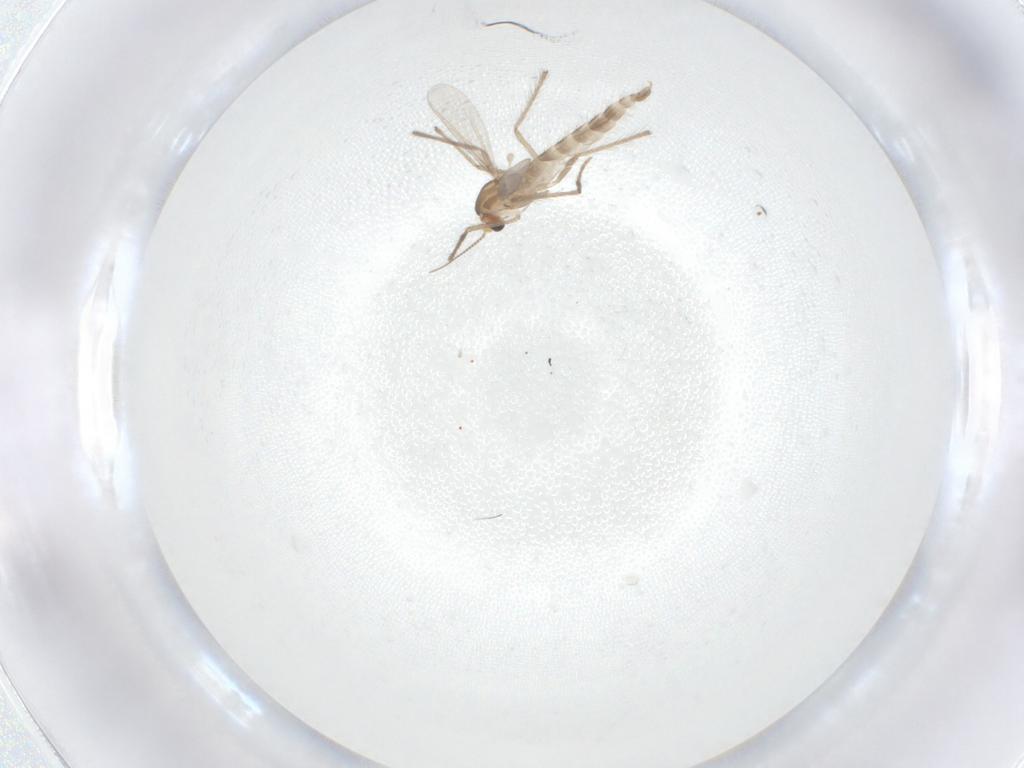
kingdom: Animalia
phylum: Arthropoda
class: Insecta
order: Diptera
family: Chironomidae
